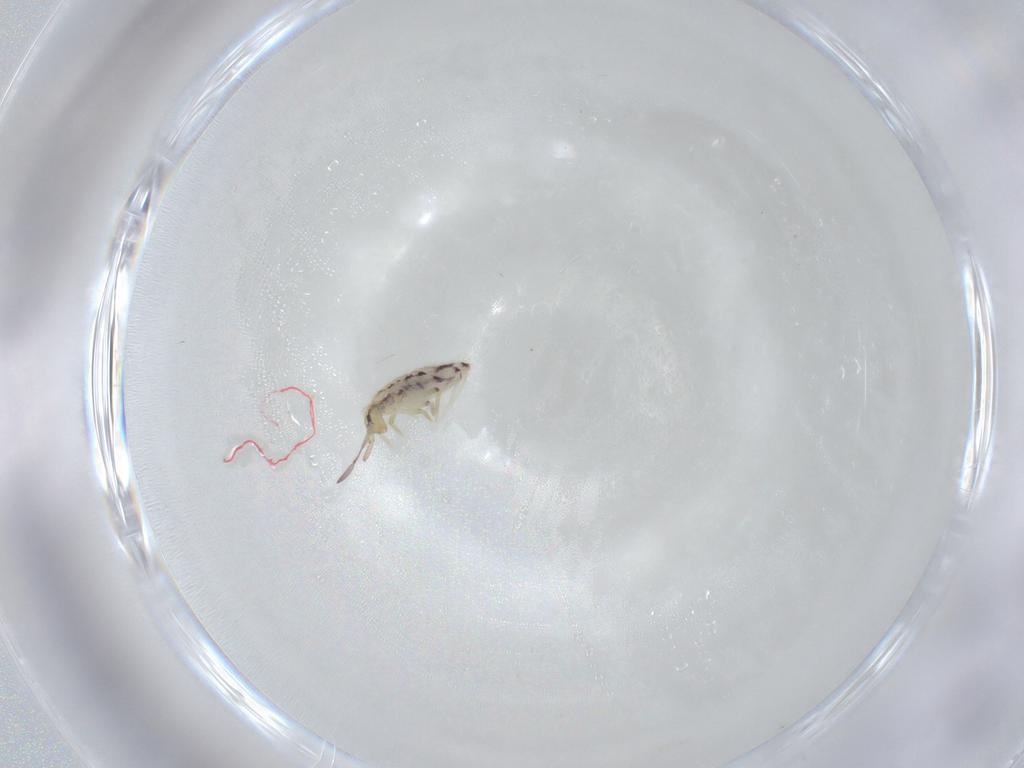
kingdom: Animalia
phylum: Arthropoda
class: Collembola
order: Entomobryomorpha
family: Entomobryidae
